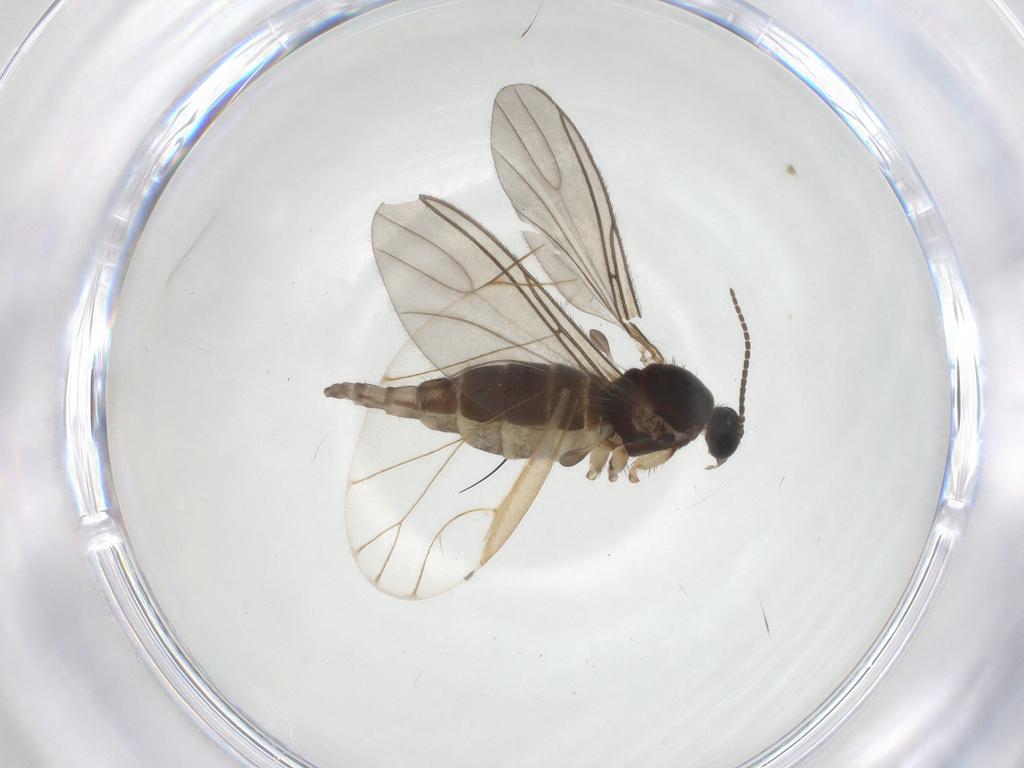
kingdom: Animalia
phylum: Arthropoda
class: Insecta
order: Diptera
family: Sciaridae
